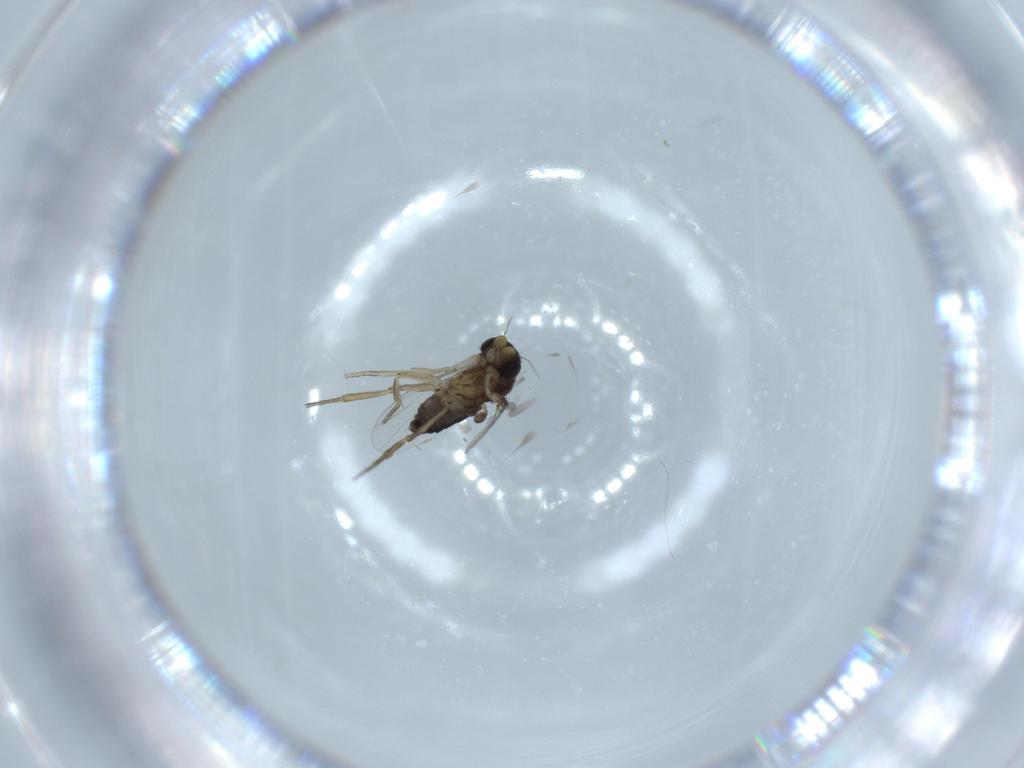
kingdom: Animalia
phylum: Arthropoda
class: Insecta
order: Diptera
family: Phoridae
